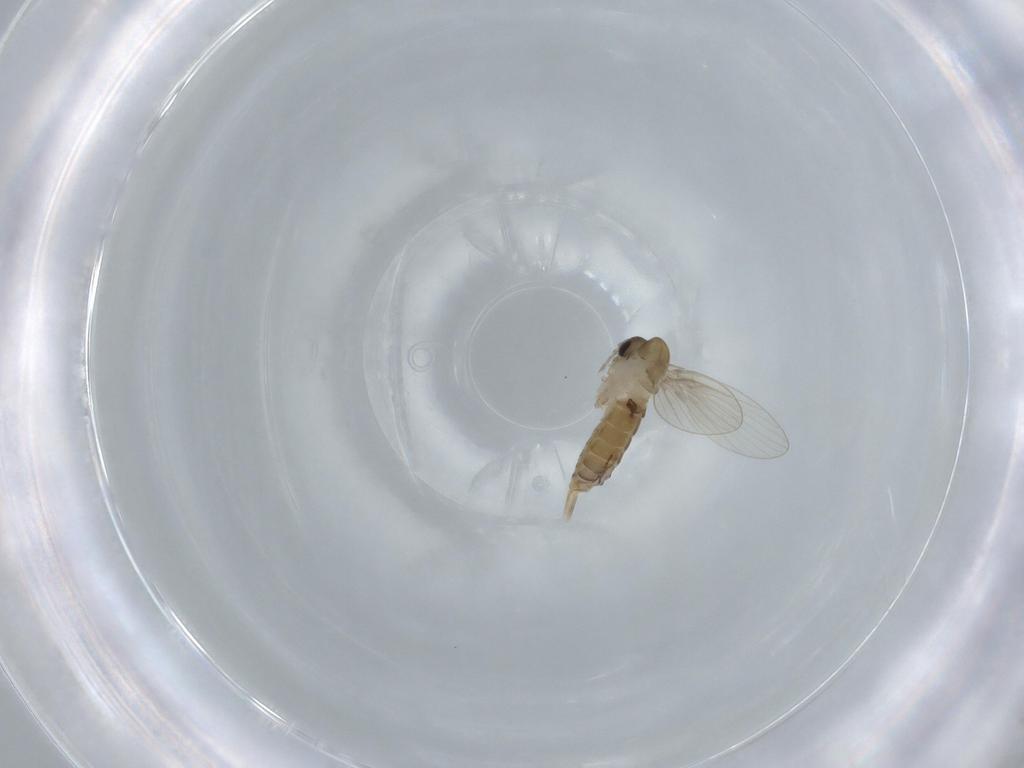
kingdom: Animalia
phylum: Arthropoda
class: Insecta
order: Diptera
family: Psychodidae
